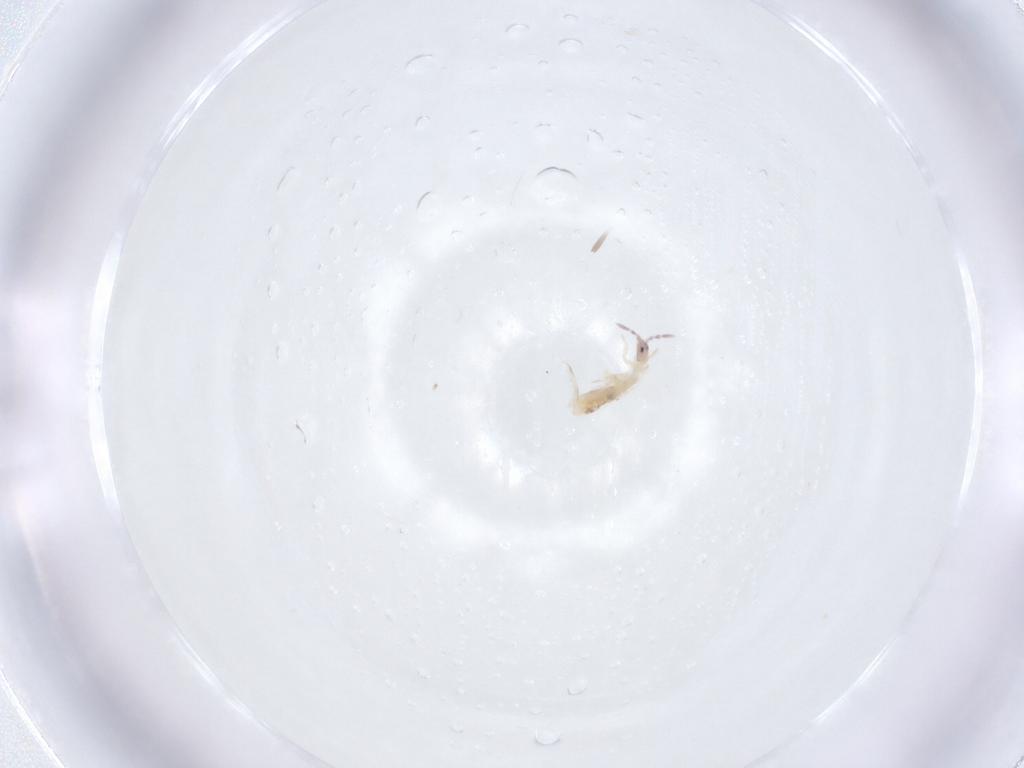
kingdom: Animalia
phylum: Arthropoda
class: Collembola
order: Entomobryomorpha
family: Entomobryidae
